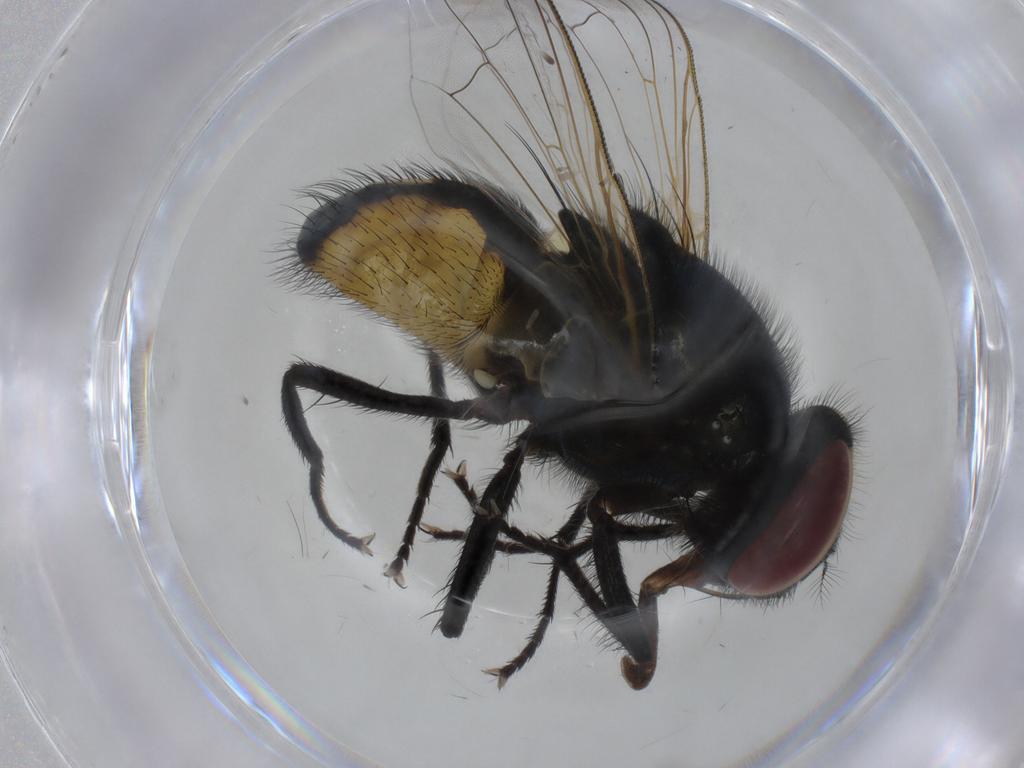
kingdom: Animalia
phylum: Arthropoda
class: Insecta
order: Diptera
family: Muscidae
